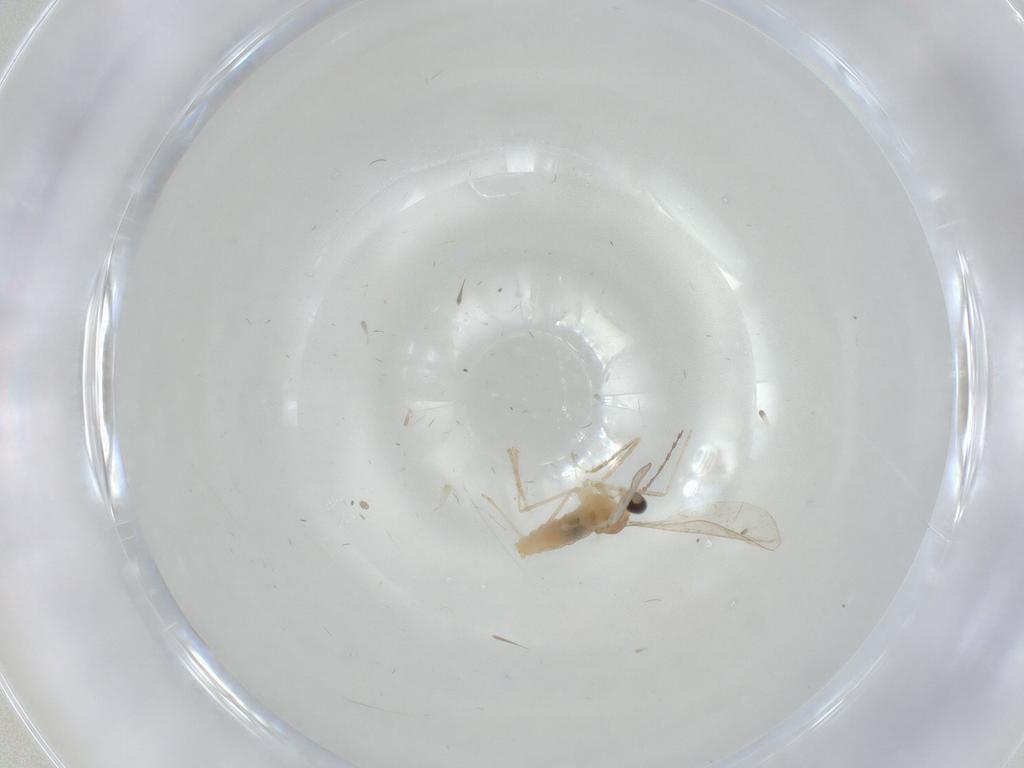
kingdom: Animalia
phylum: Arthropoda
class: Insecta
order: Diptera
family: Cecidomyiidae
